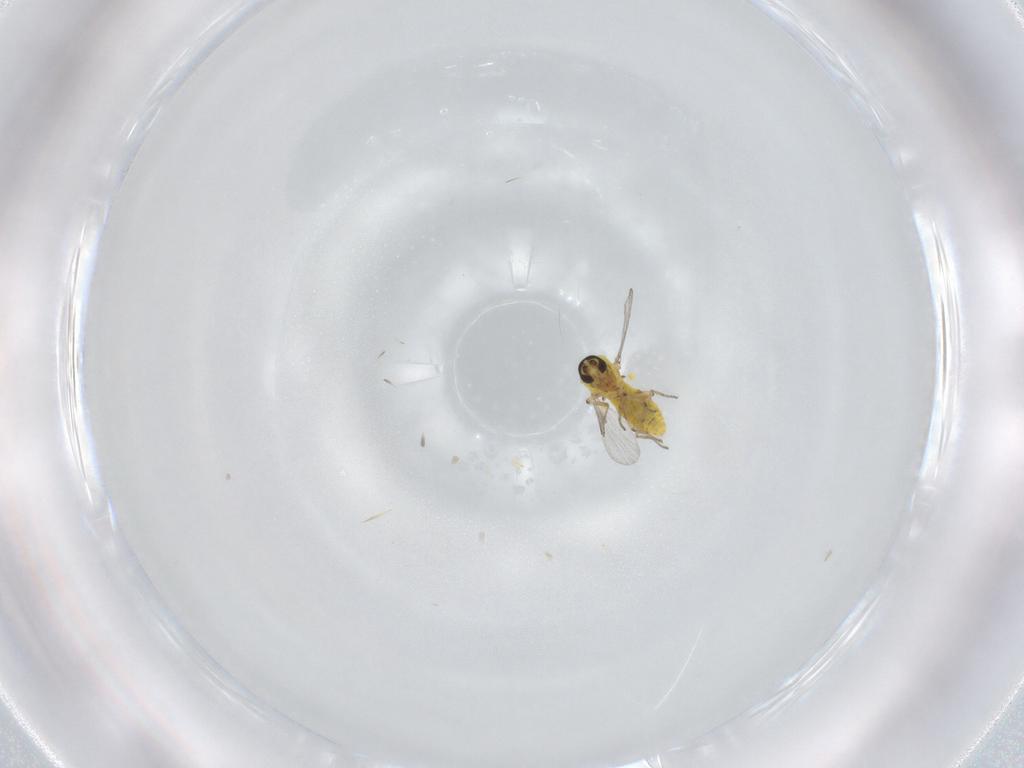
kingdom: Animalia
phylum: Arthropoda
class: Insecta
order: Diptera
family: Ceratopogonidae
